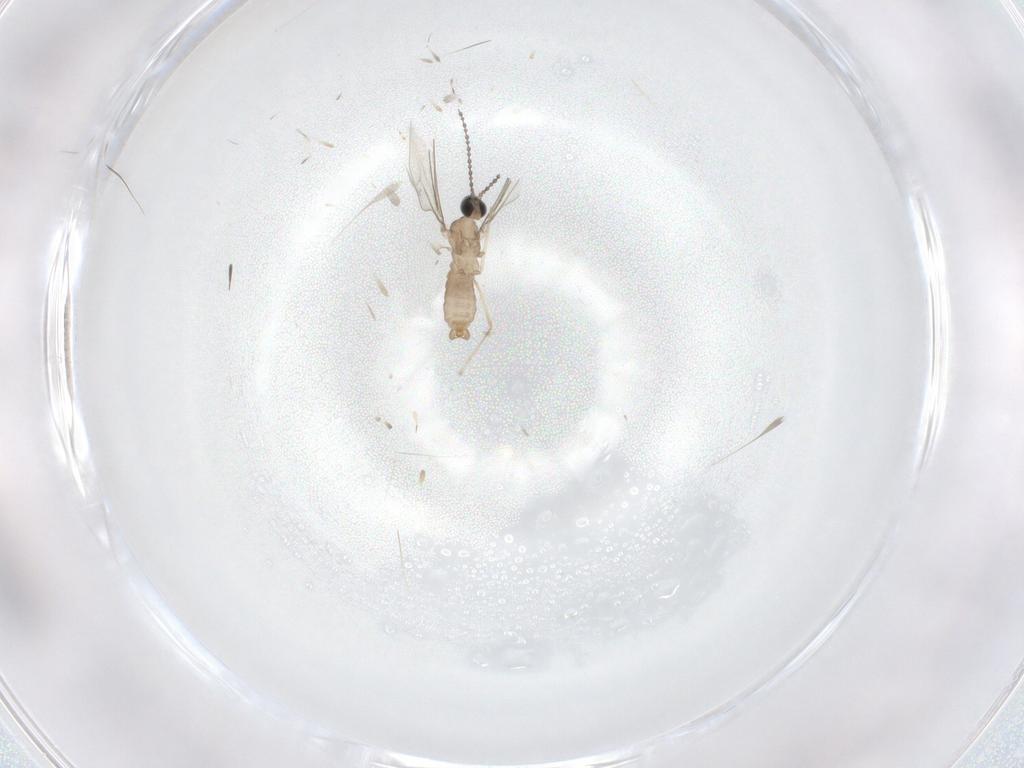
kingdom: Animalia
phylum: Arthropoda
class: Insecta
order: Diptera
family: Cecidomyiidae
